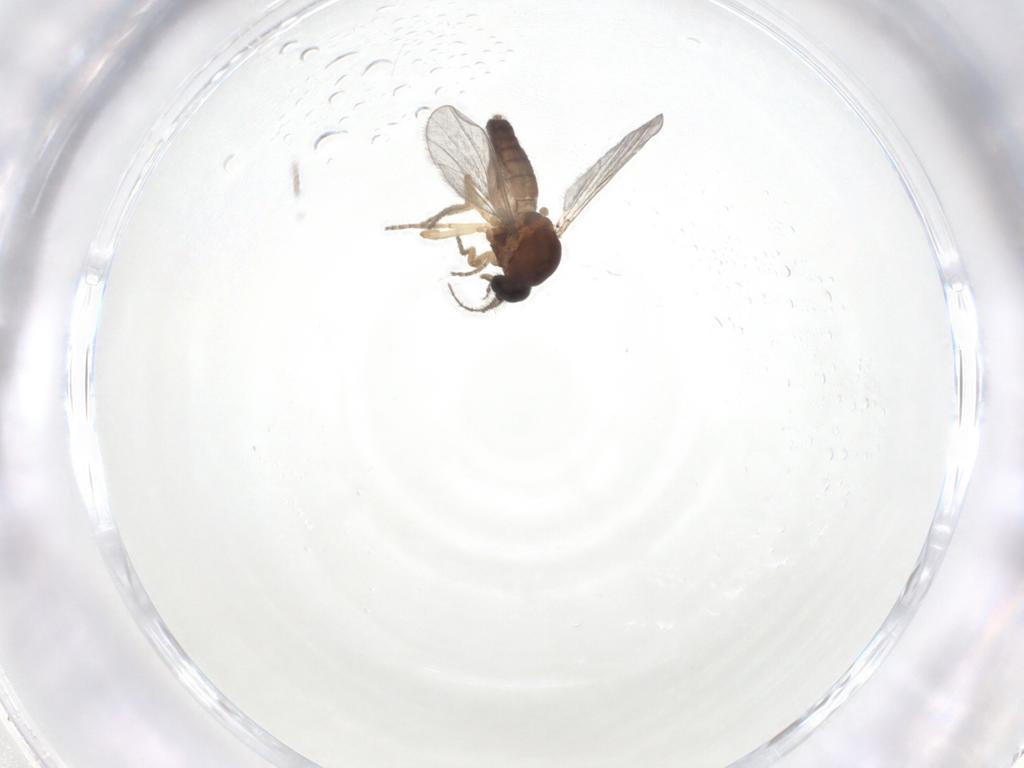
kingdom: Animalia
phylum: Arthropoda
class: Insecta
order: Diptera
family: Ceratopogonidae
